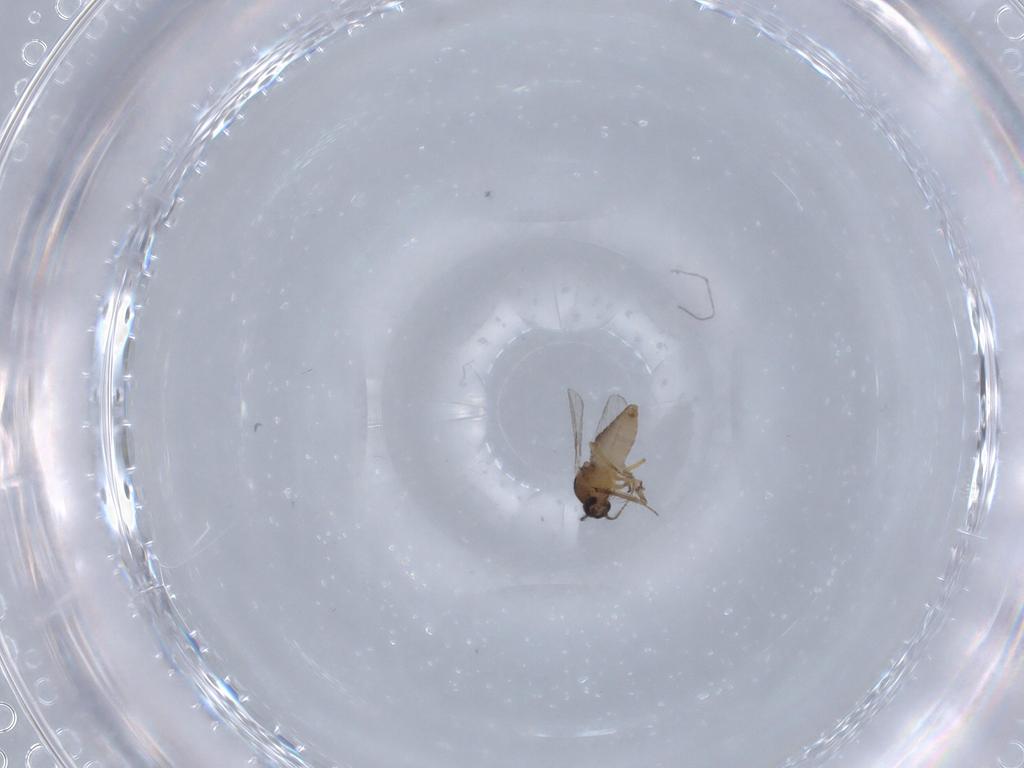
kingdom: Animalia
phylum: Arthropoda
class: Insecta
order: Diptera
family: Ceratopogonidae
